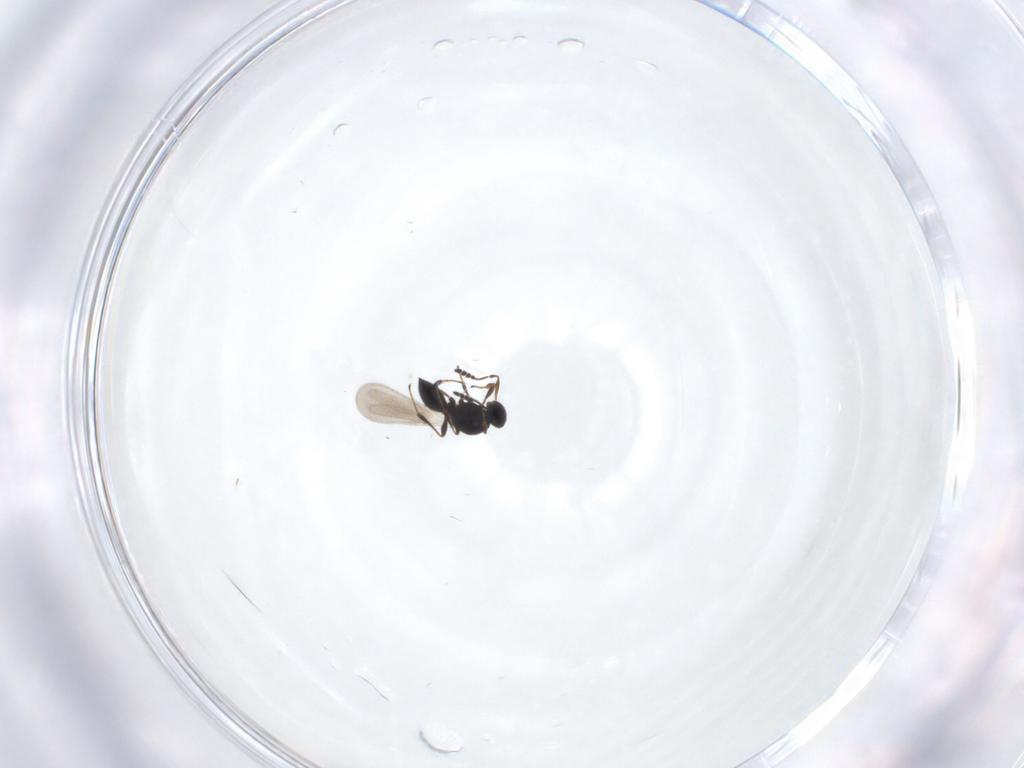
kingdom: Animalia
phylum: Arthropoda
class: Insecta
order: Hymenoptera
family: Platygastridae
